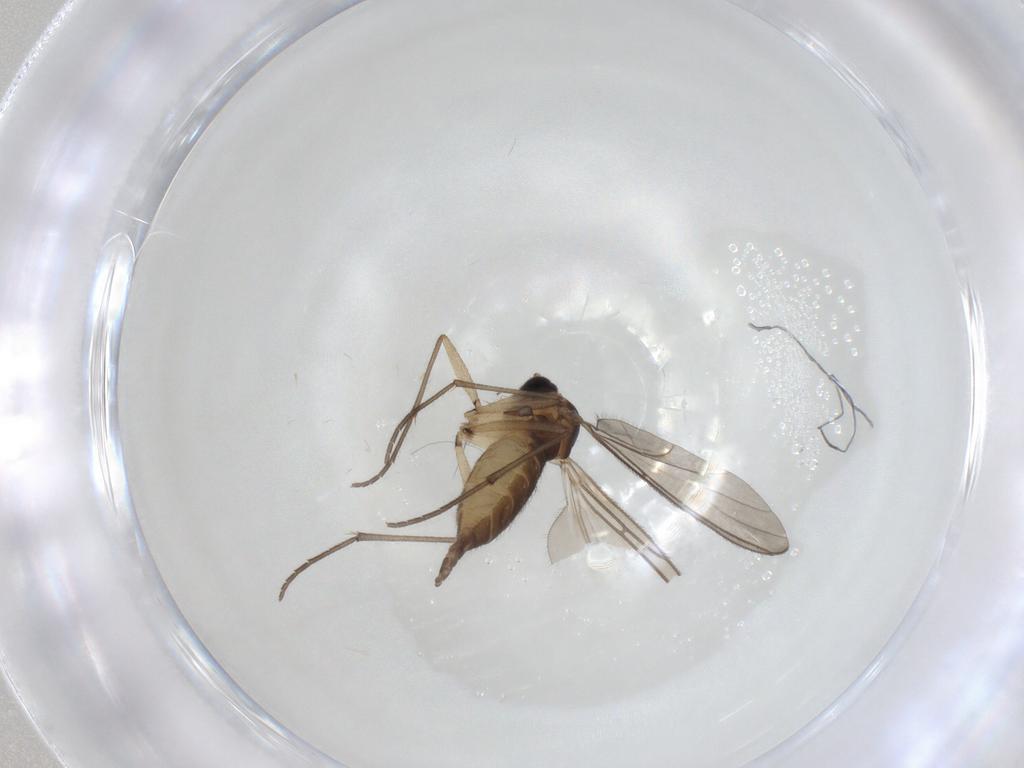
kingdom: Animalia
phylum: Arthropoda
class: Insecta
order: Diptera
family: Sciaridae
